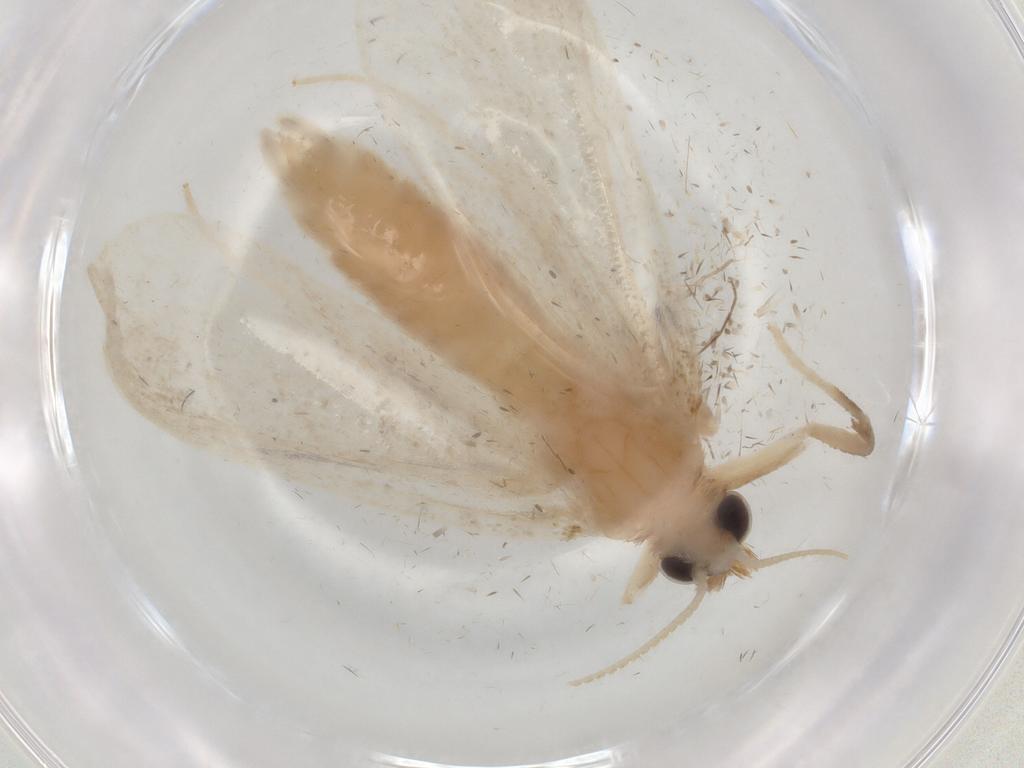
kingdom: Animalia
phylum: Arthropoda
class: Insecta
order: Lepidoptera
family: Crambidae
